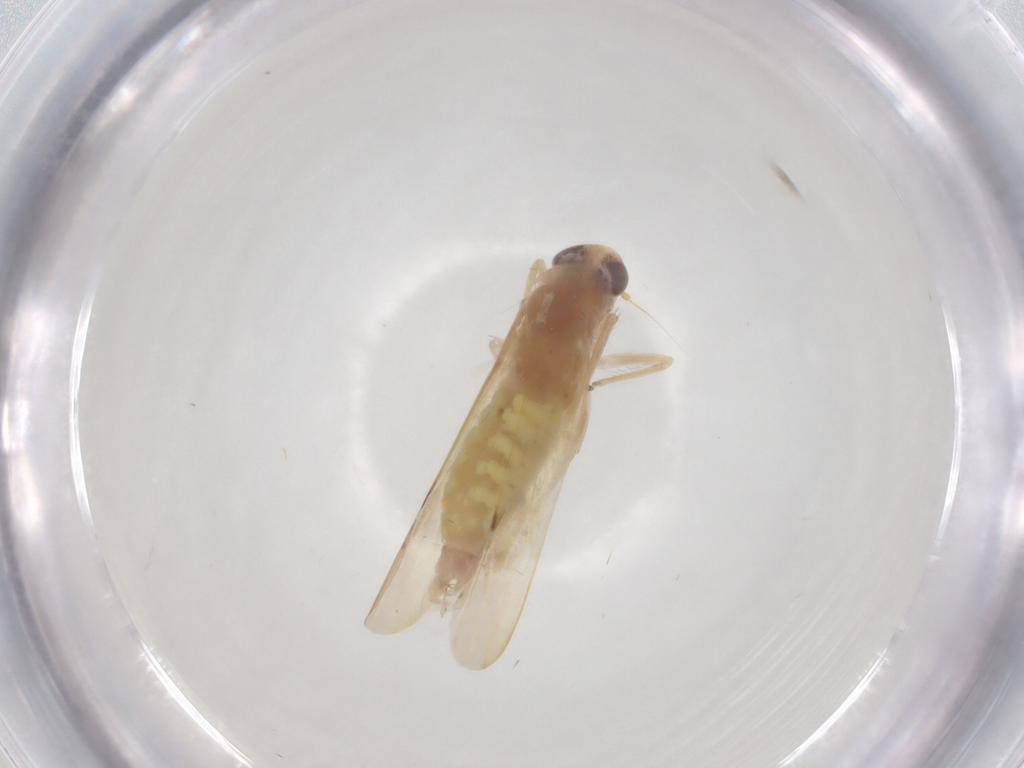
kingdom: Animalia
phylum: Arthropoda
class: Insecta
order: Hemiptera
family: Cicadellidae
